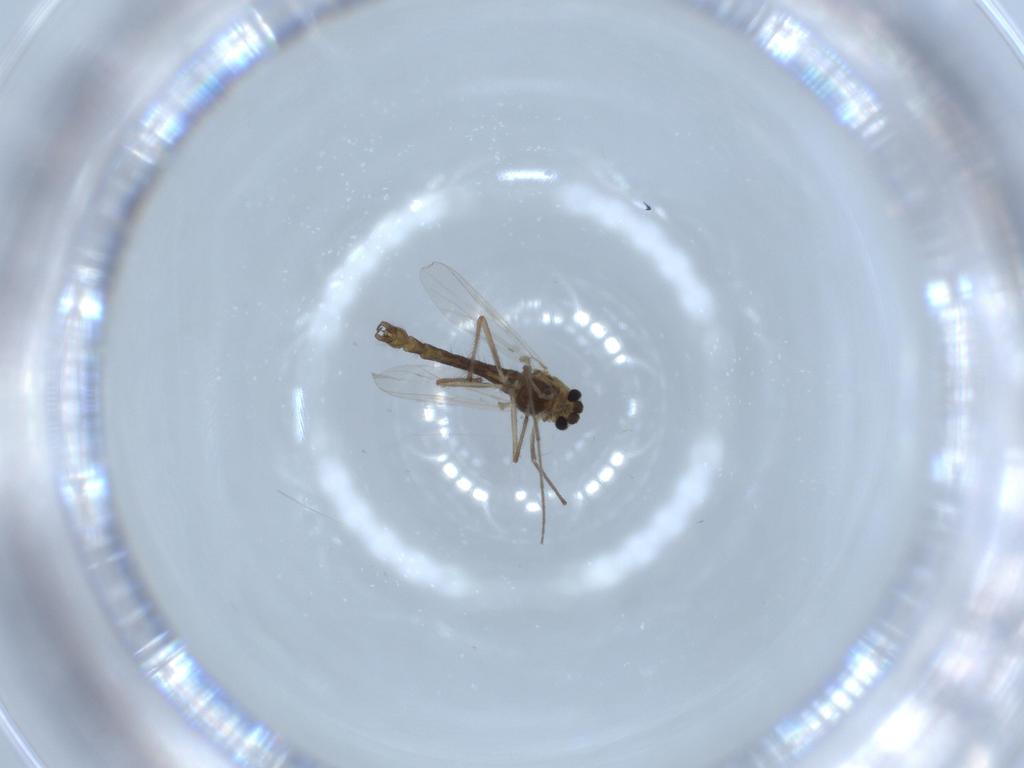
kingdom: Animalia
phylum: Arthropoda
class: Insecta
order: Diptera
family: Chironomidae
